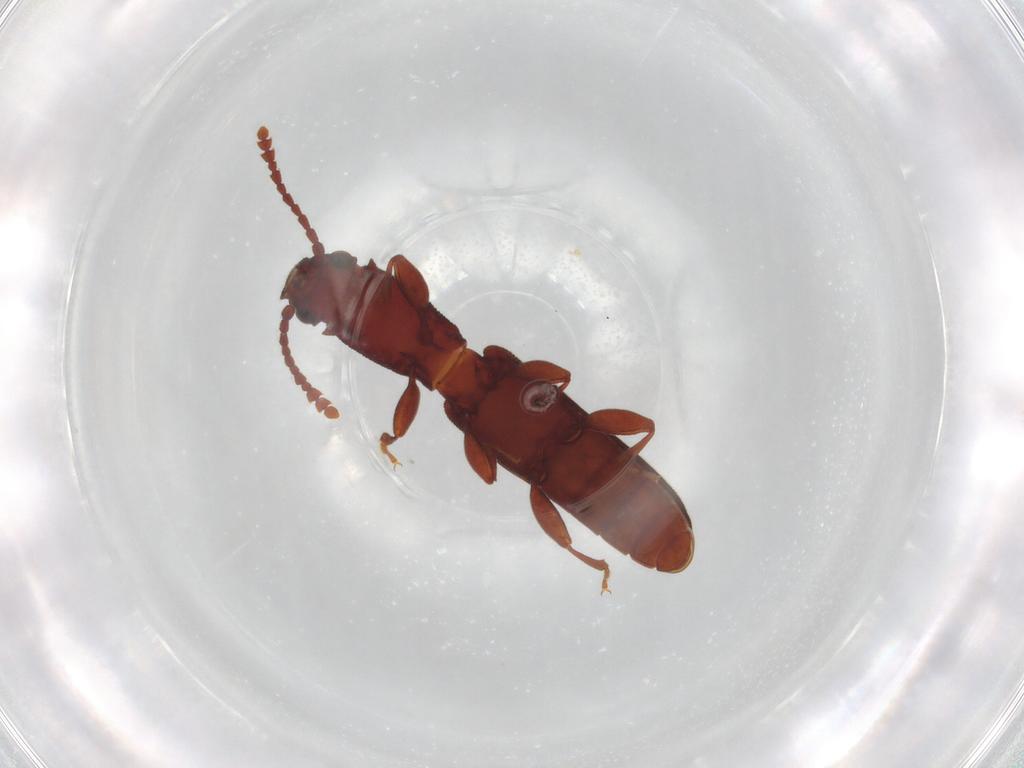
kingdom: Animalia
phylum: Arthropoda
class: Insecta
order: Coleoptera
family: Silvanidae
